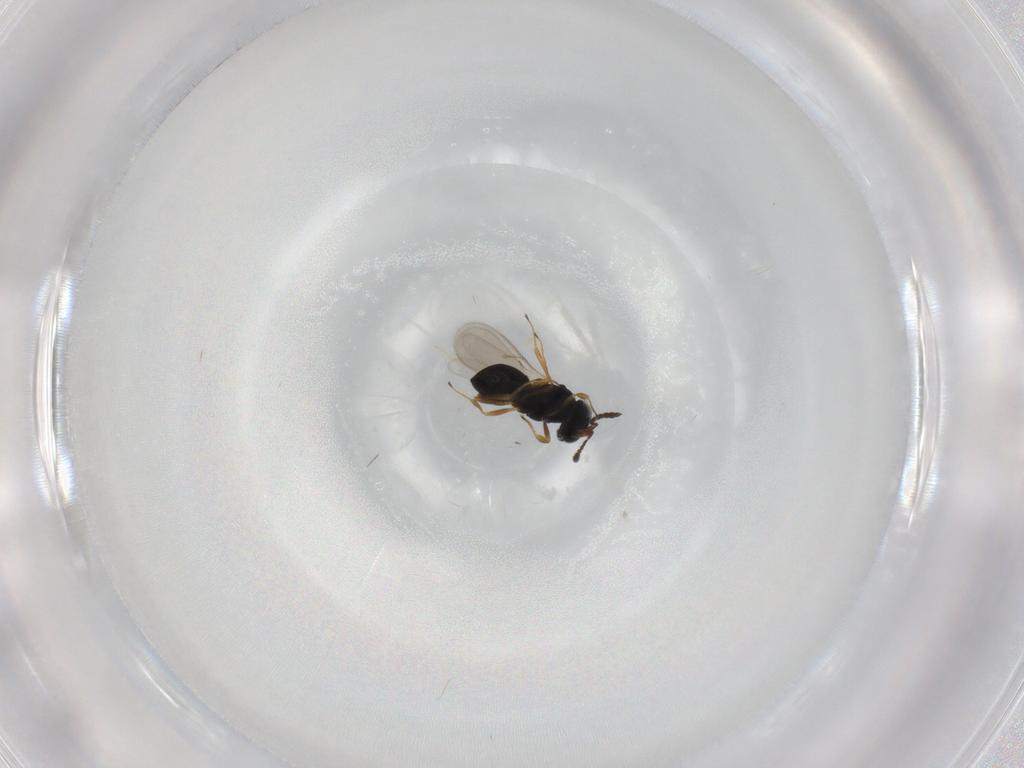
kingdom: Animalia
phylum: Arthropoda
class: Insecta
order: Hymenoptera
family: Scelionidae
